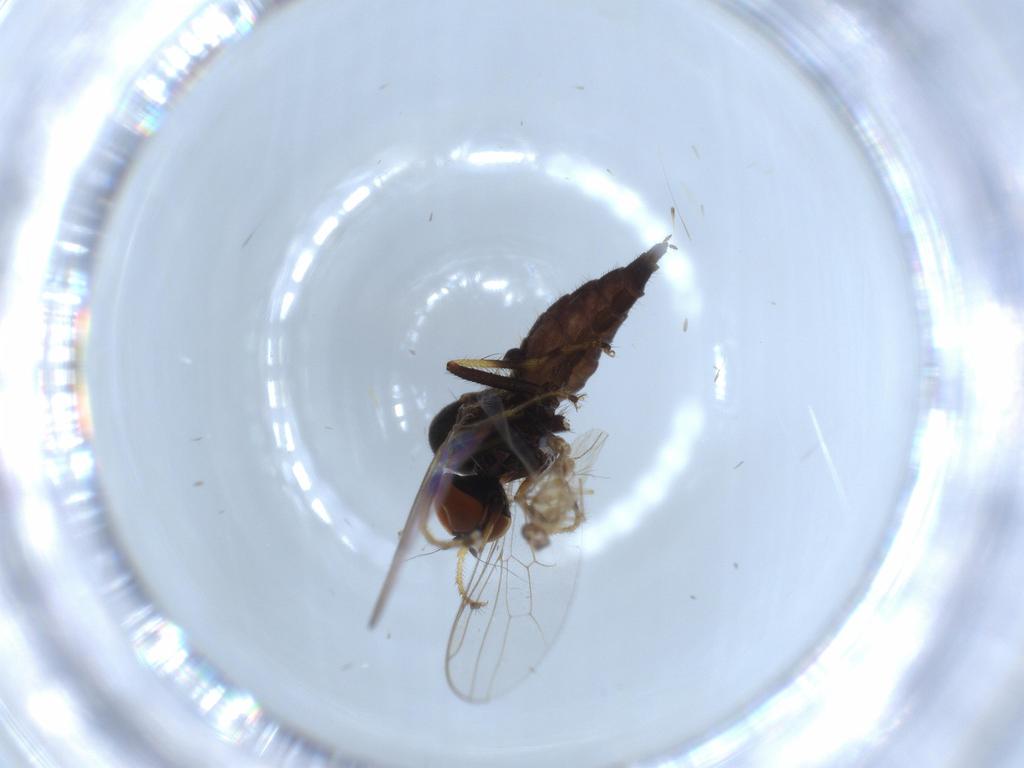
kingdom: Animalia
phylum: Arthropoda
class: Insecta
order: Diptera
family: Hybotidae
